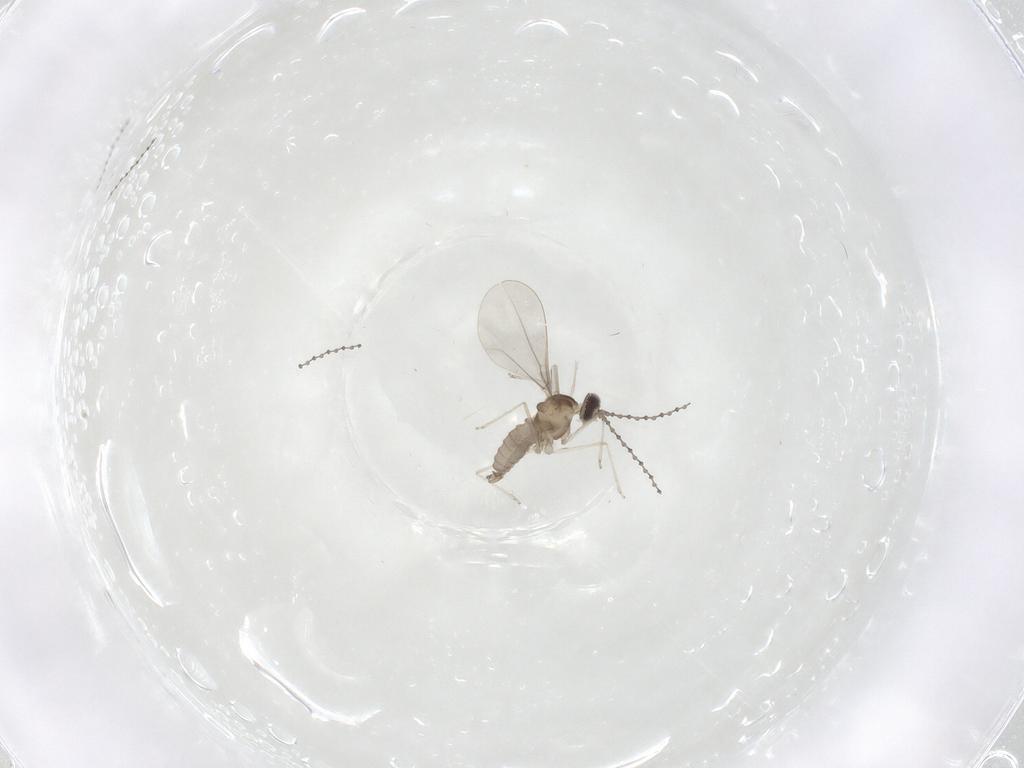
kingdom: Animalia
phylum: Arthropoda
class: Insecta
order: Diptera
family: Cecidomyiidae
